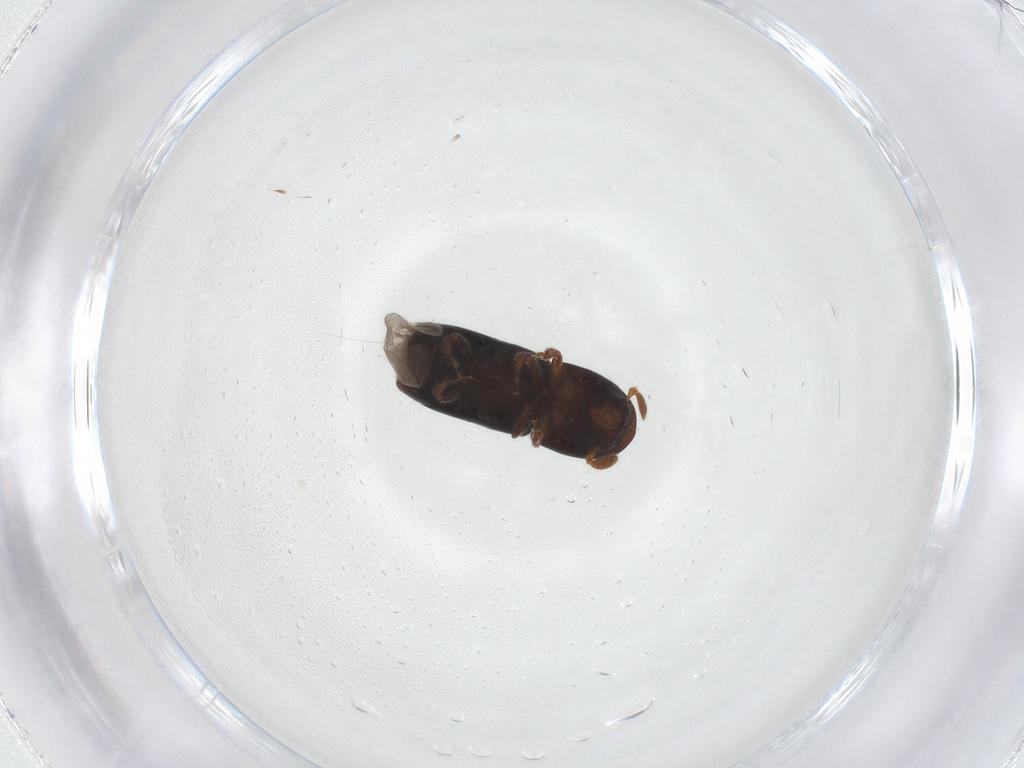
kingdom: Animalia
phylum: Arthropoda
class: Insecta
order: Coleoptera
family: Curculionidae
